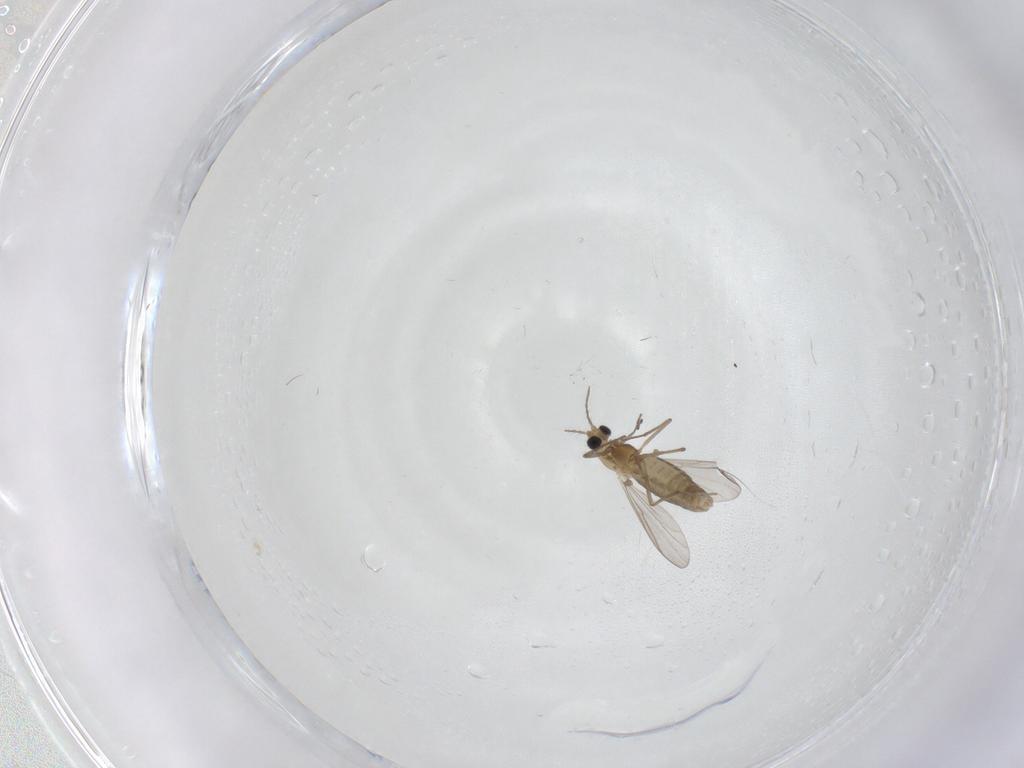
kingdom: Animalia
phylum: Arthropoda
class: Insecta
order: Diptera
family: Chironomidae
